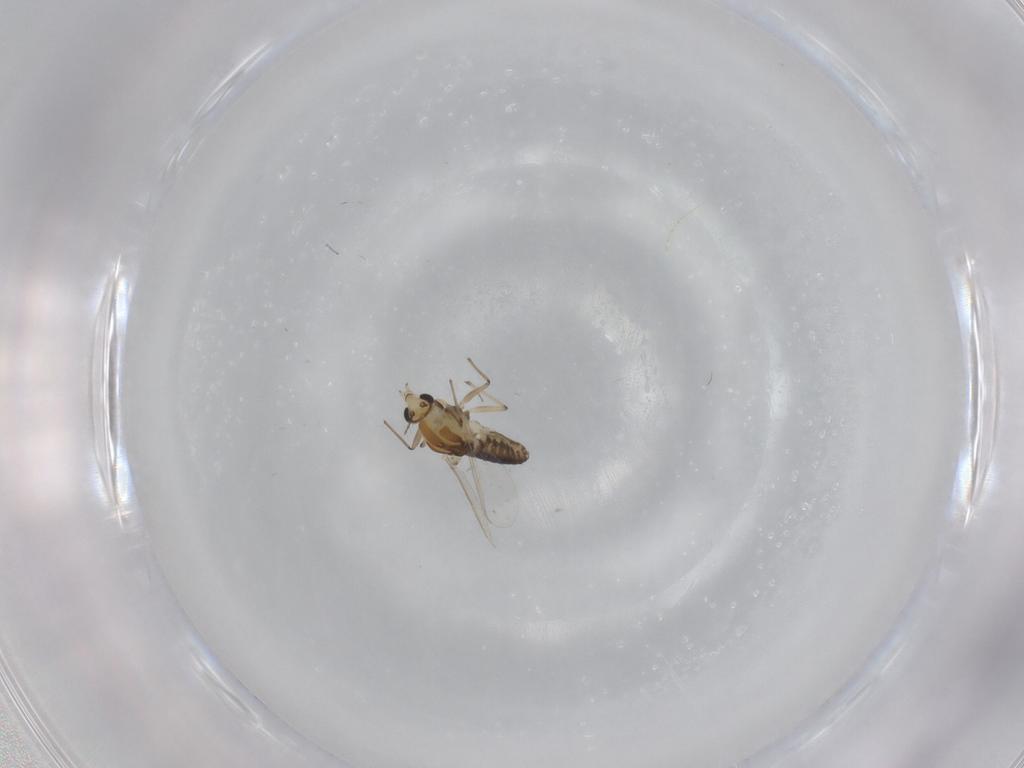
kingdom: Animalia
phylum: Arthropoda
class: Insecta
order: Diptera
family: Chironomidae
